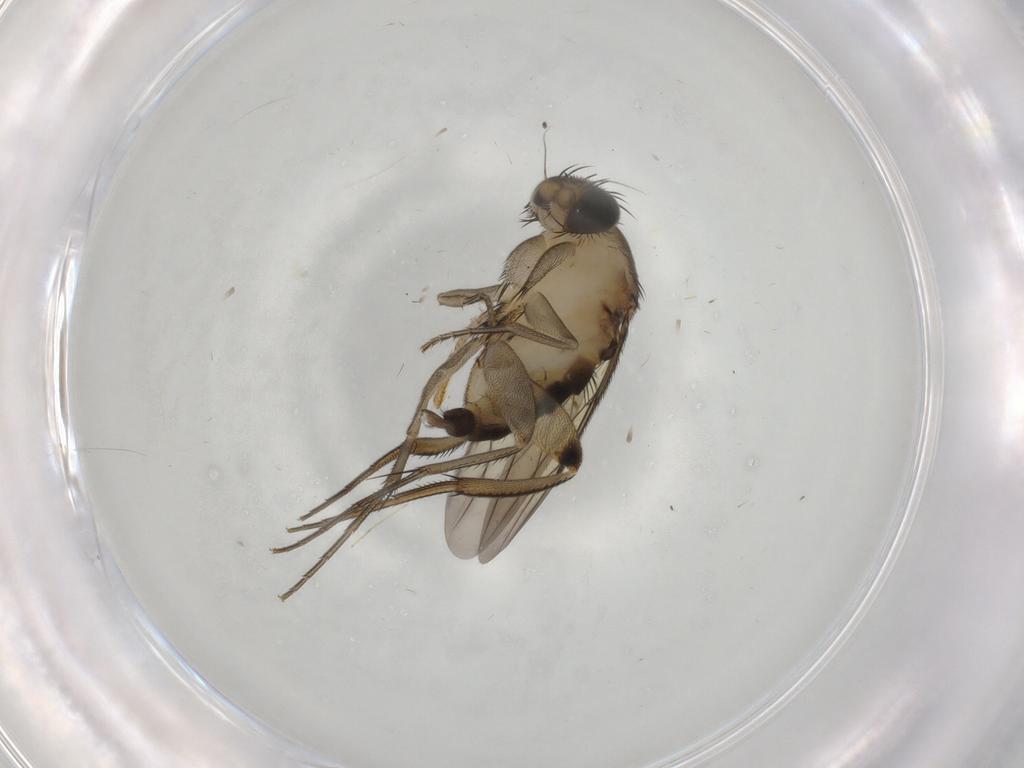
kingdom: Animalia
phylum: Arthropoda
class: Insecta
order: Diptera
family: Phoridae
